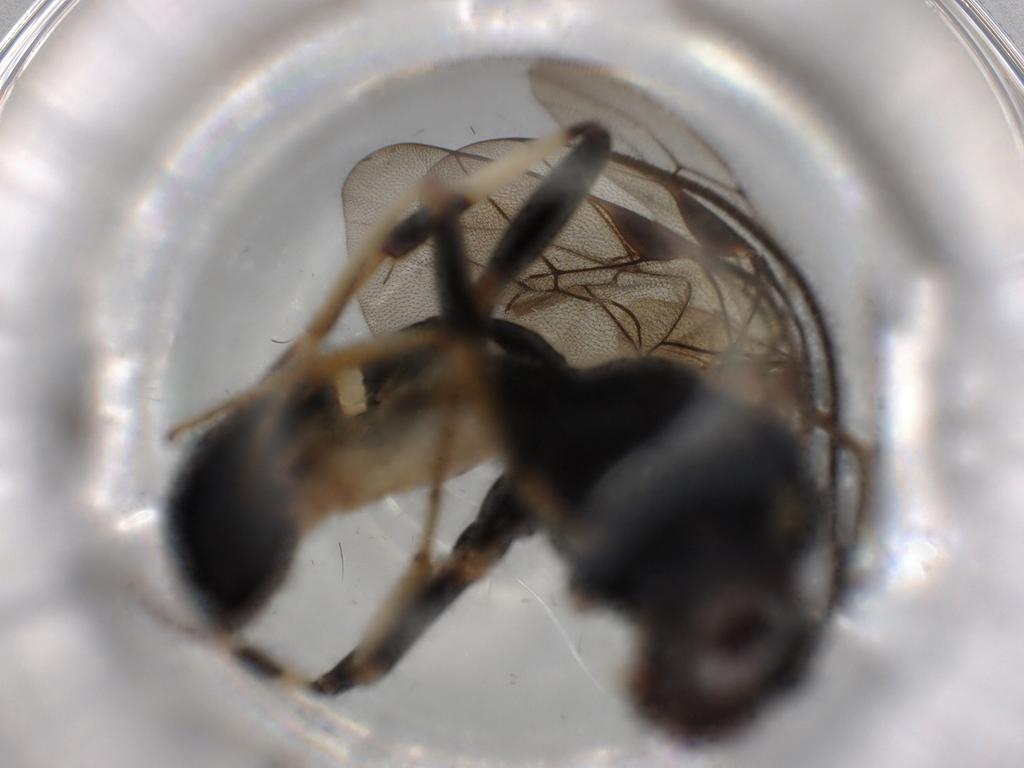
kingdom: Animalia
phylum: Arthropoda
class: Insecta
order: Hymenoptera
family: Ichneumonidae
